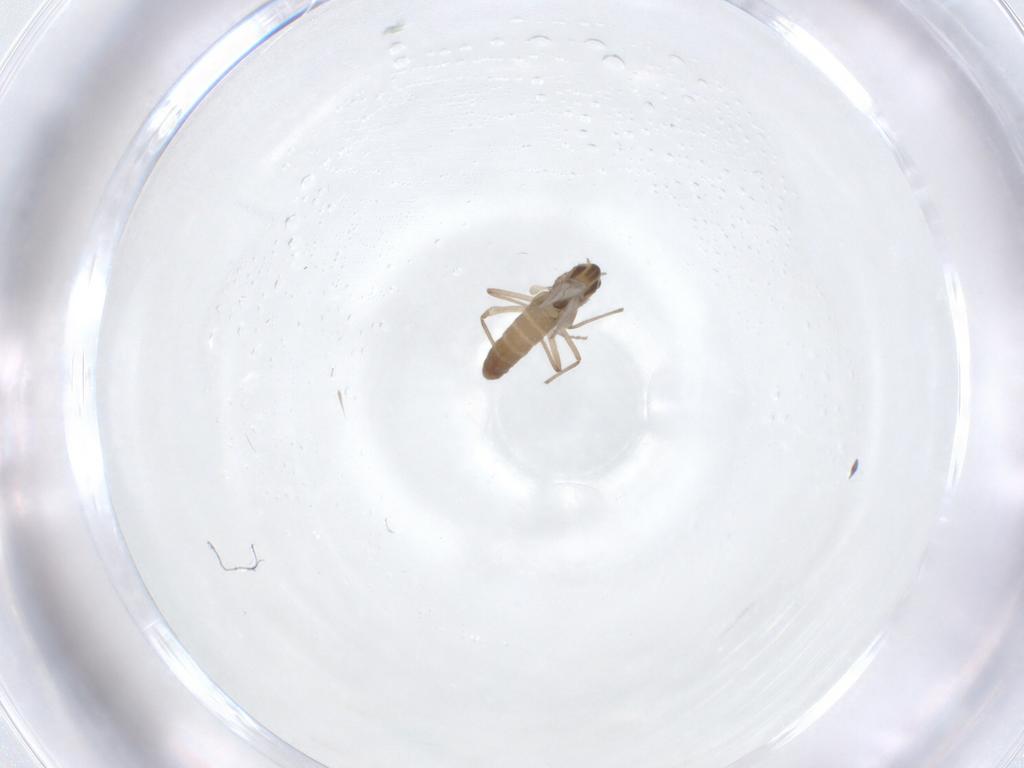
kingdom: Animalia
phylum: Arthropoda
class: Insecta
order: Diptera
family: Chironomidae
